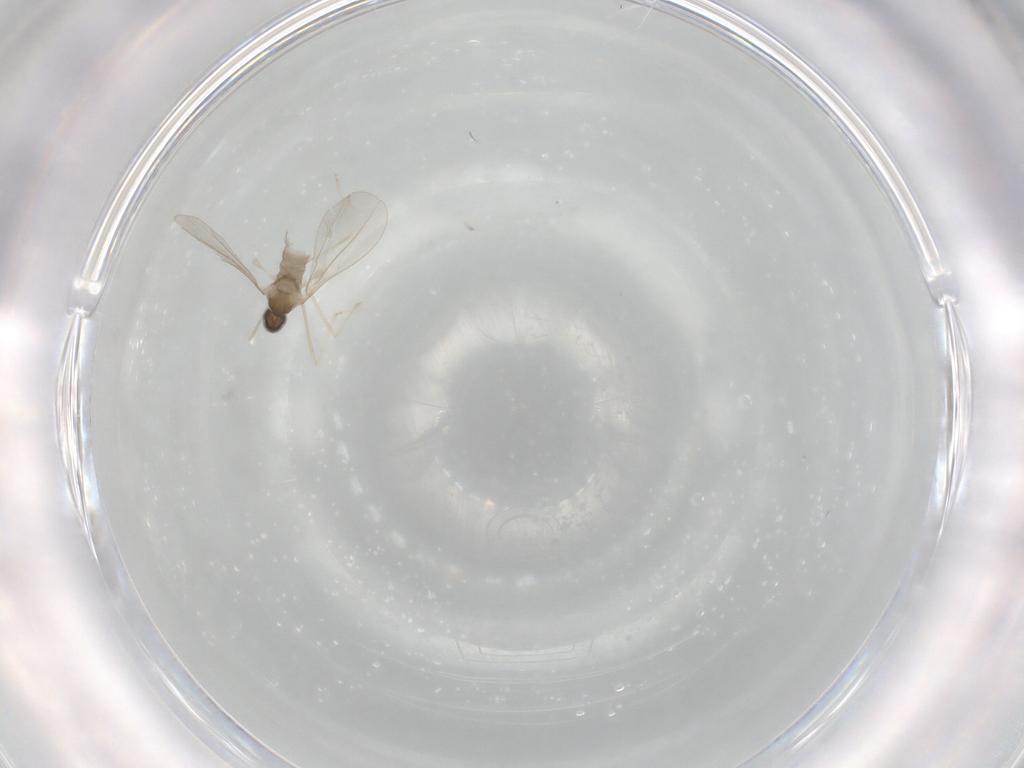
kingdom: Animalia
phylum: Arthropoda
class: Insecta
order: Diptera
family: Cecidomyiidae
